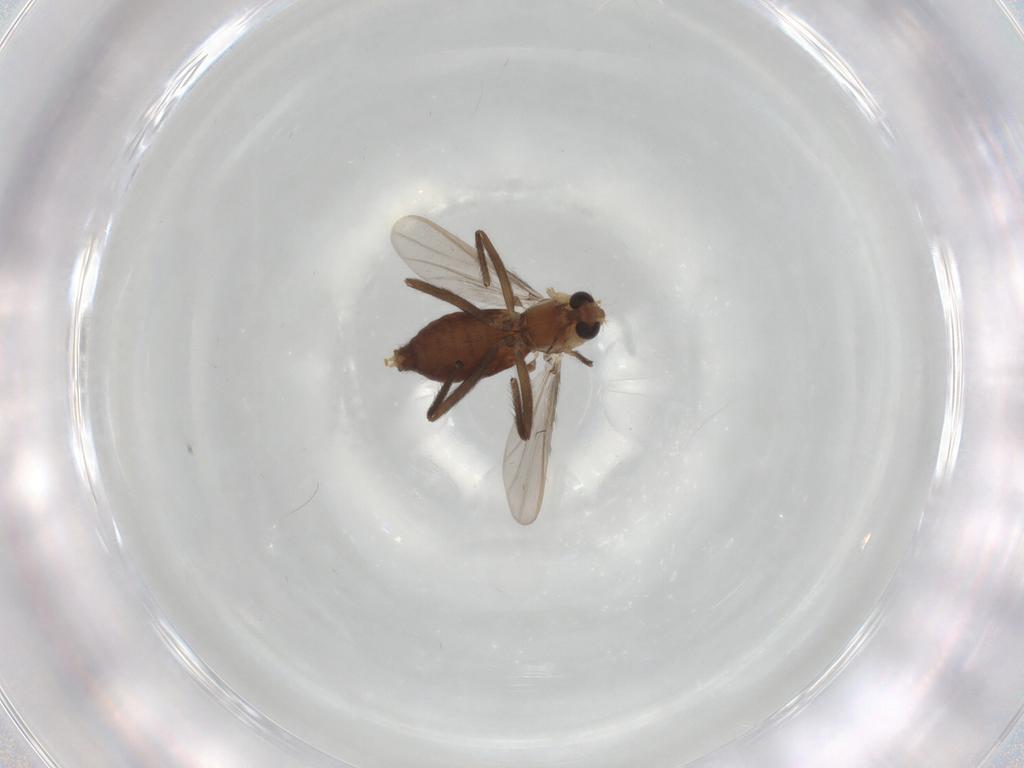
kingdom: Animalia
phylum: Arthropoda
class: Insecta
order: Diptera
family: Chironomidae
